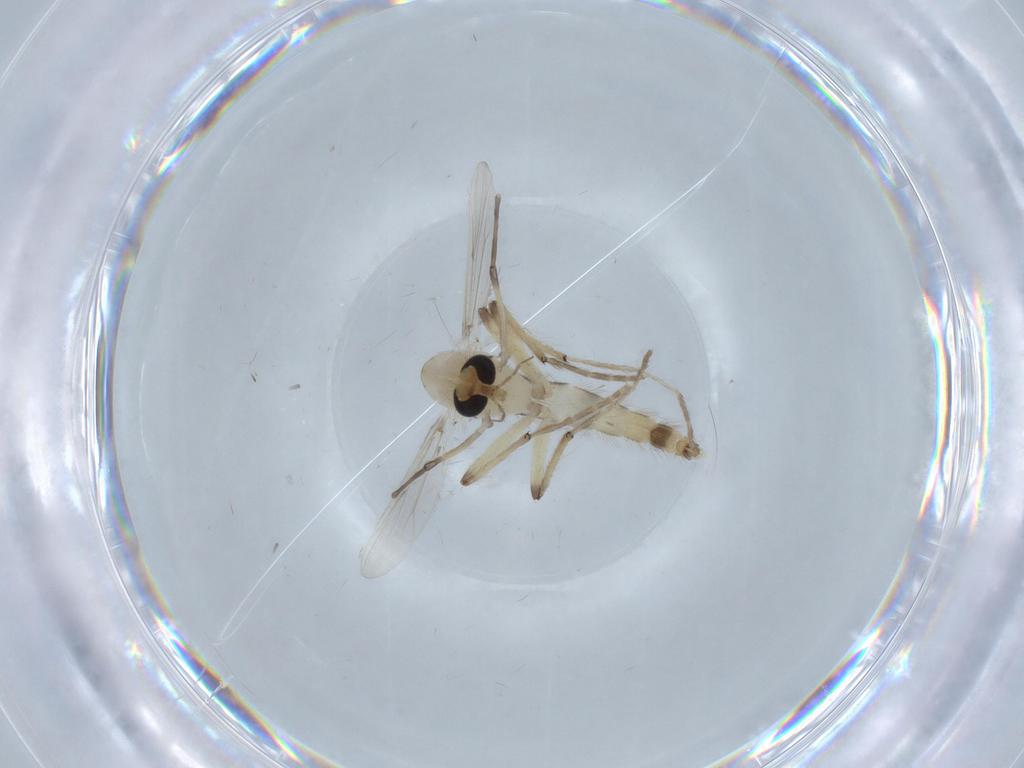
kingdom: Animalia
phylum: Arthropoda
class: Insecta
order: Diptera
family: Chironomidae
